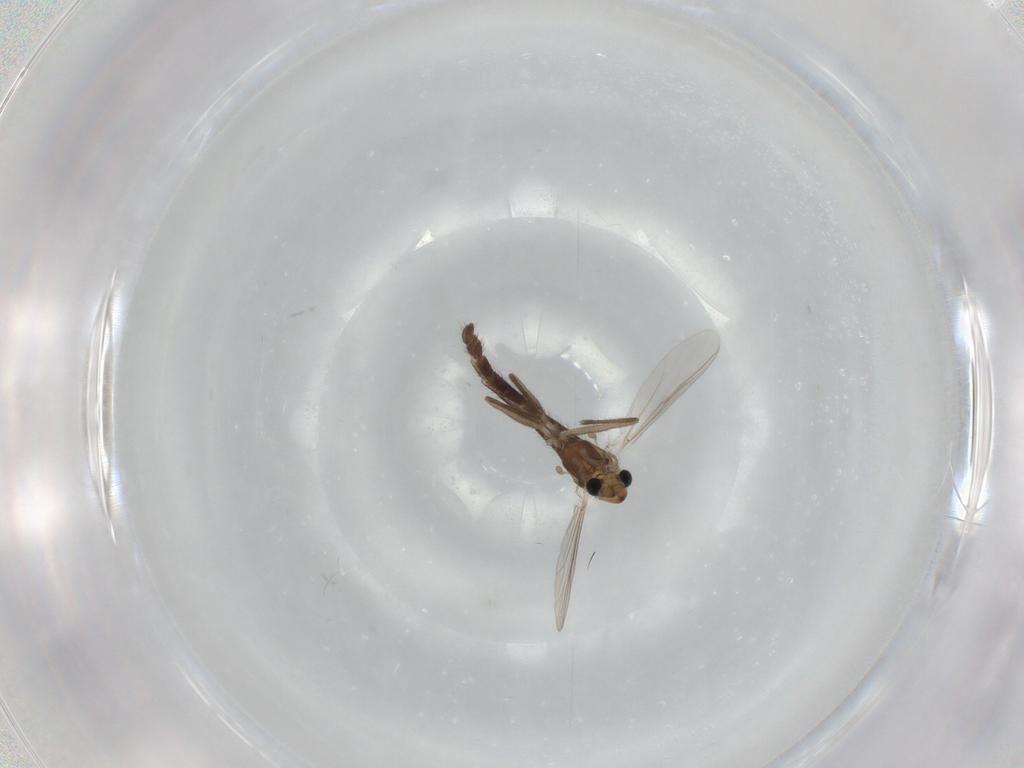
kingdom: Animalia
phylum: Arthropoda
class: Insecta
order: Diptera
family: Chironomidae
